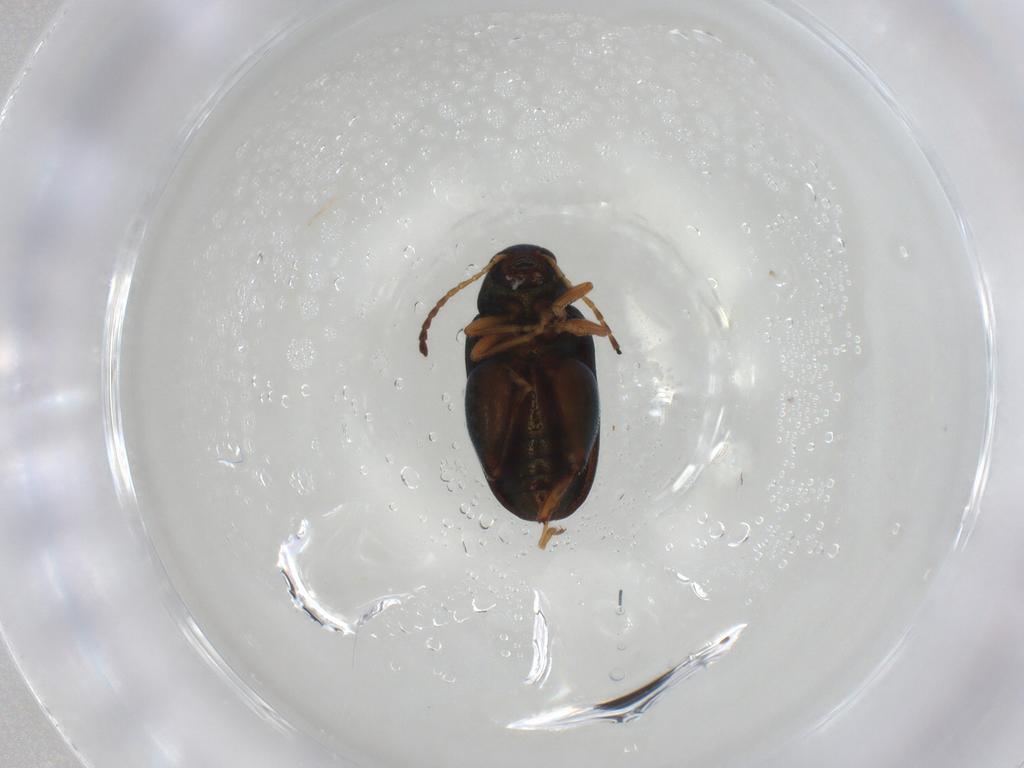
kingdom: Animalia
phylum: Arthropoda
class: Insecta
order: Coleoptera
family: Chrysomelidae
